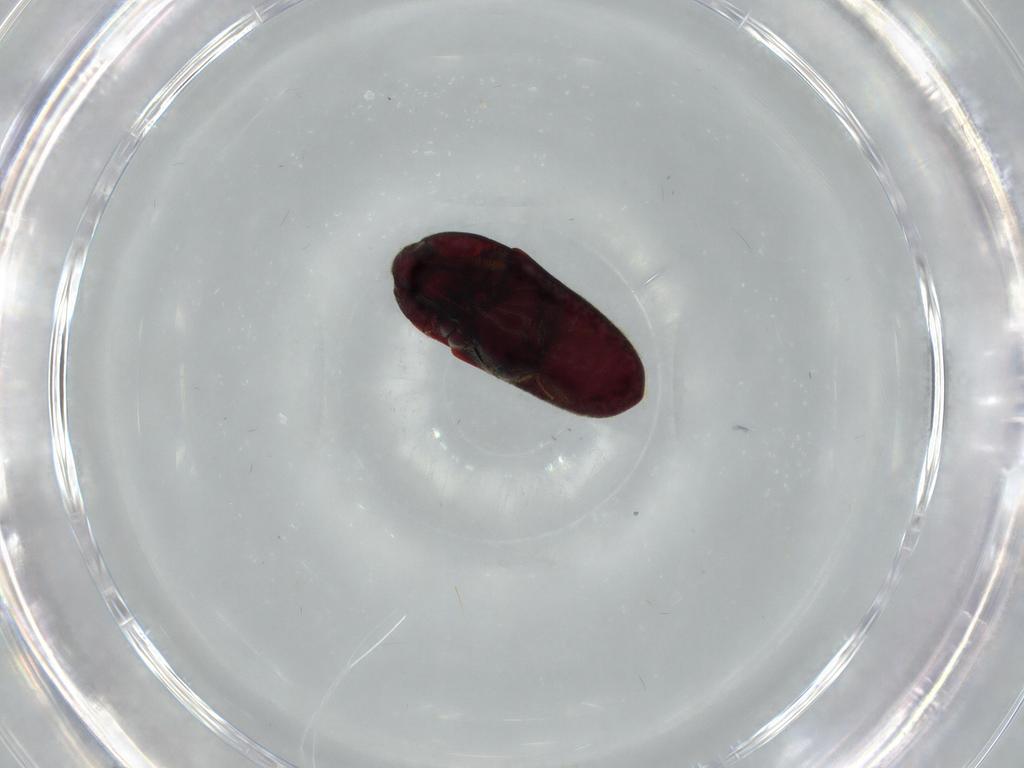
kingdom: Animalia
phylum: Arthropoda
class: Insecta
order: Coleoptera
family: Throscidae
